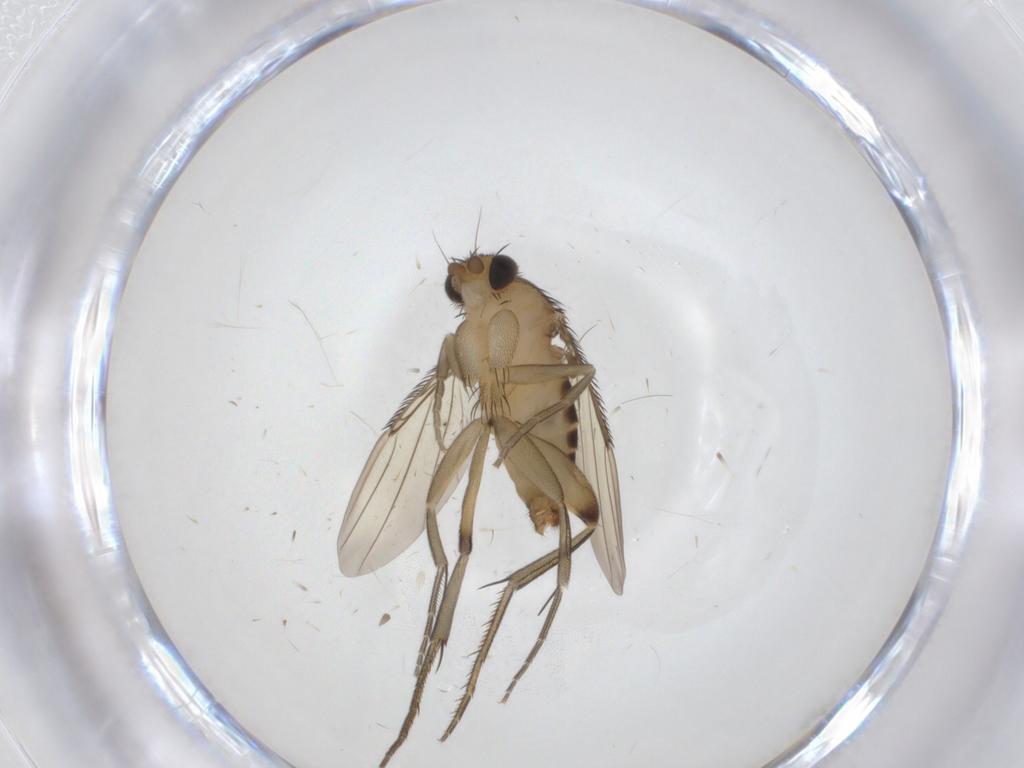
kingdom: Animalia
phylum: Arthropoda
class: Insecta
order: Diptera
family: Phoridae
